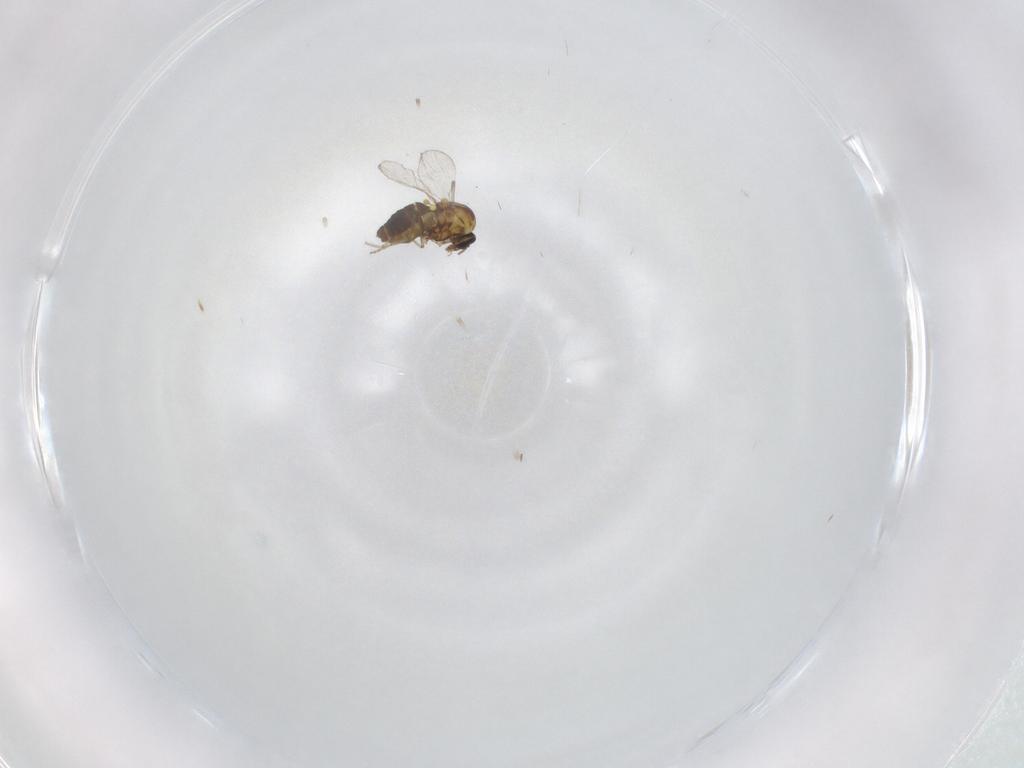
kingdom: Animalia
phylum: Arthropoda
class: Insecta
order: Diptera
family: Ceratopogonidae
